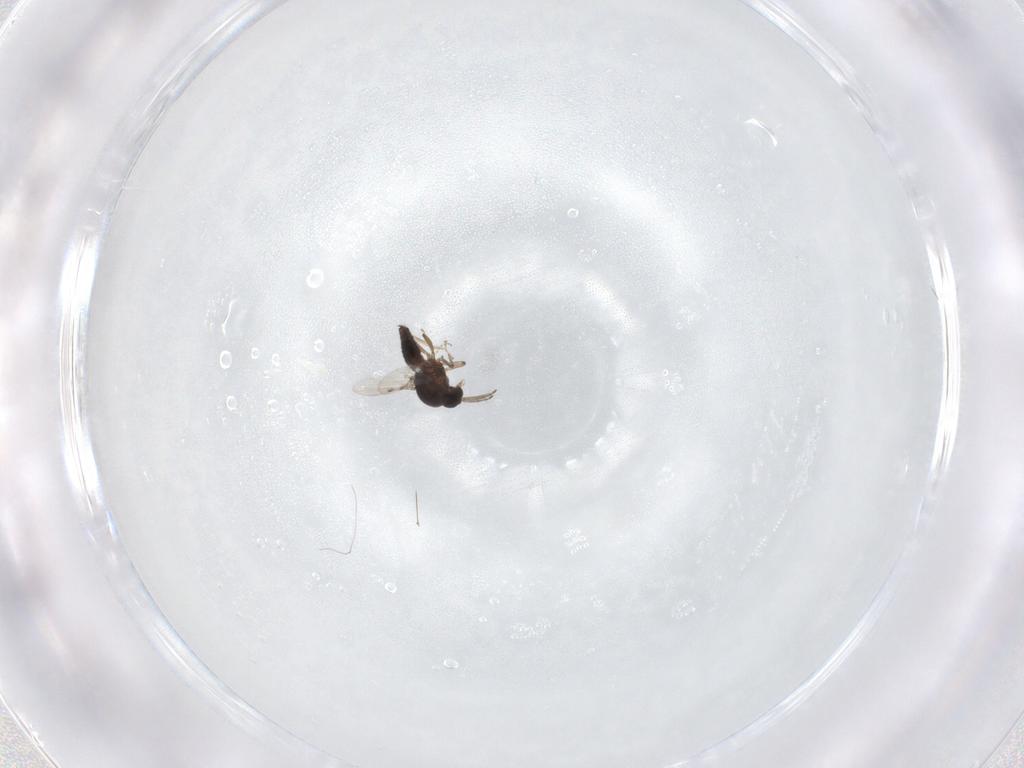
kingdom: Animalia
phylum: Arthropoda
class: Insecta
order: Diptera
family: Ceratopogonidae
